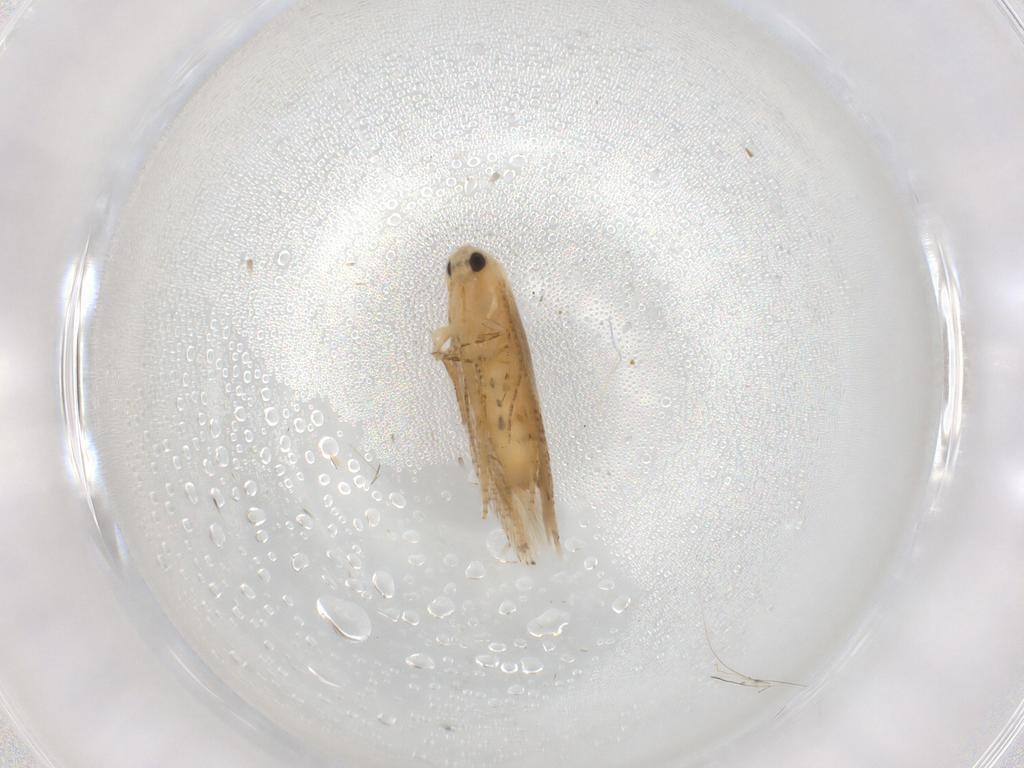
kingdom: Animalia
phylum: Arthropoda
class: Insecta
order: Lepidoptera
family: Depressariidae
